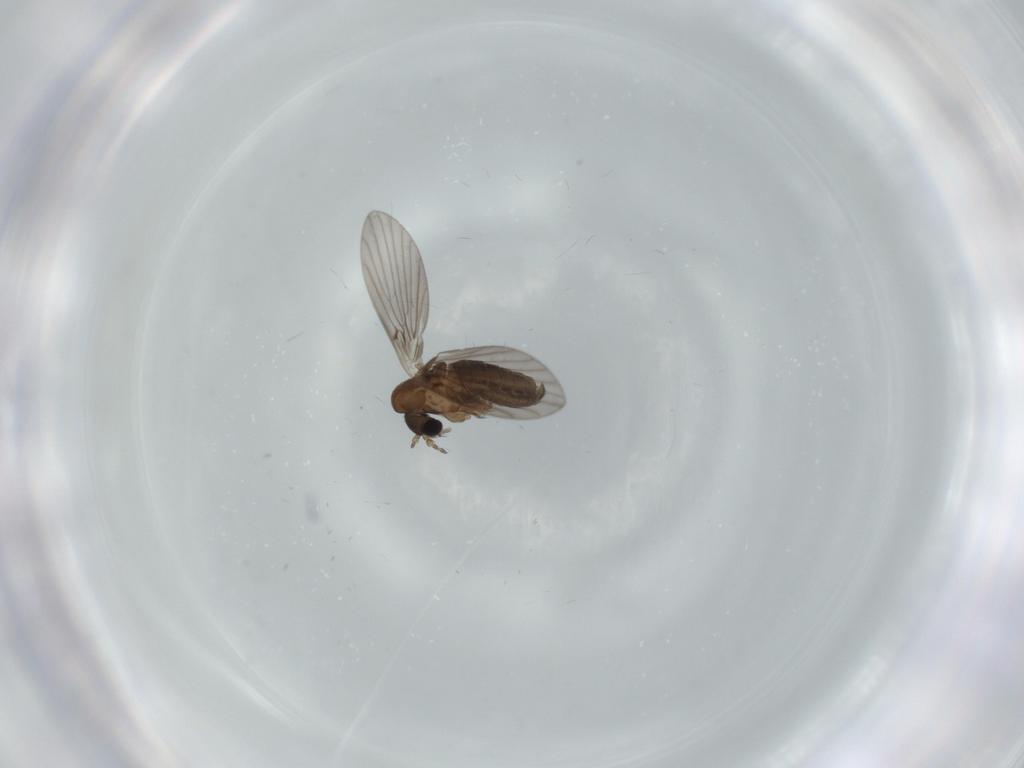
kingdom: Animalia
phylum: Arthropoda
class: Insecta
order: Diptera
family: Psychodidae
